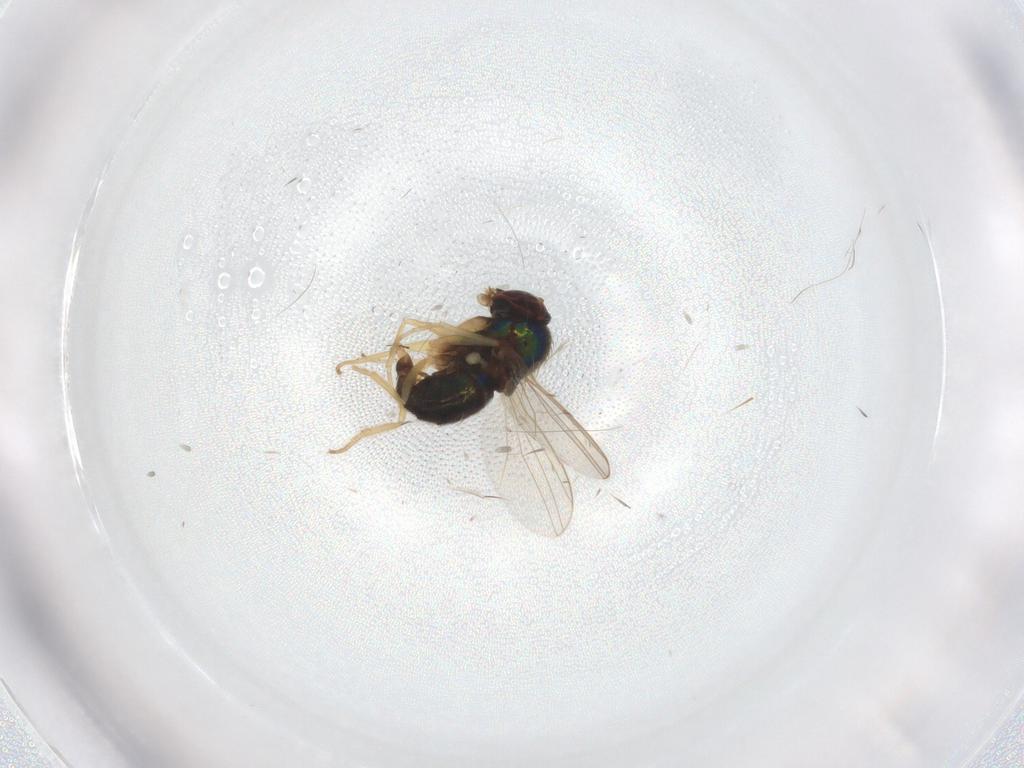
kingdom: Animalia
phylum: Arthropoda
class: Insecta
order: Diptera
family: Dolichopodidae
